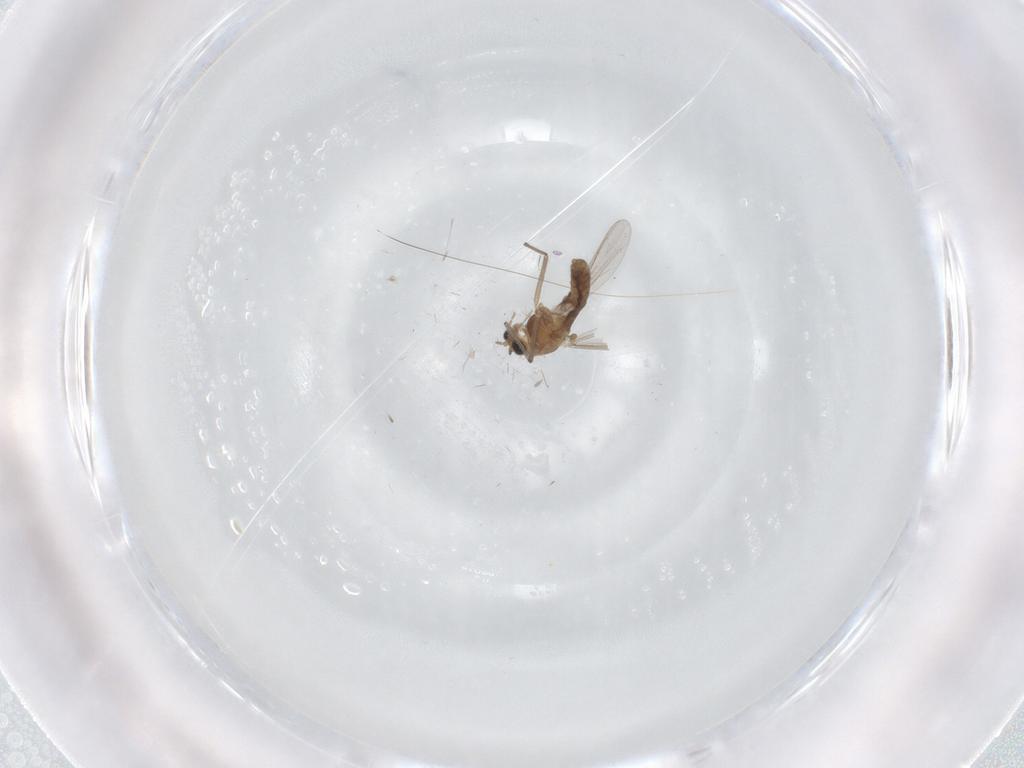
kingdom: Animalia
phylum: Arthropoda
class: Insecta
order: Diptera
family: Chironomidae
